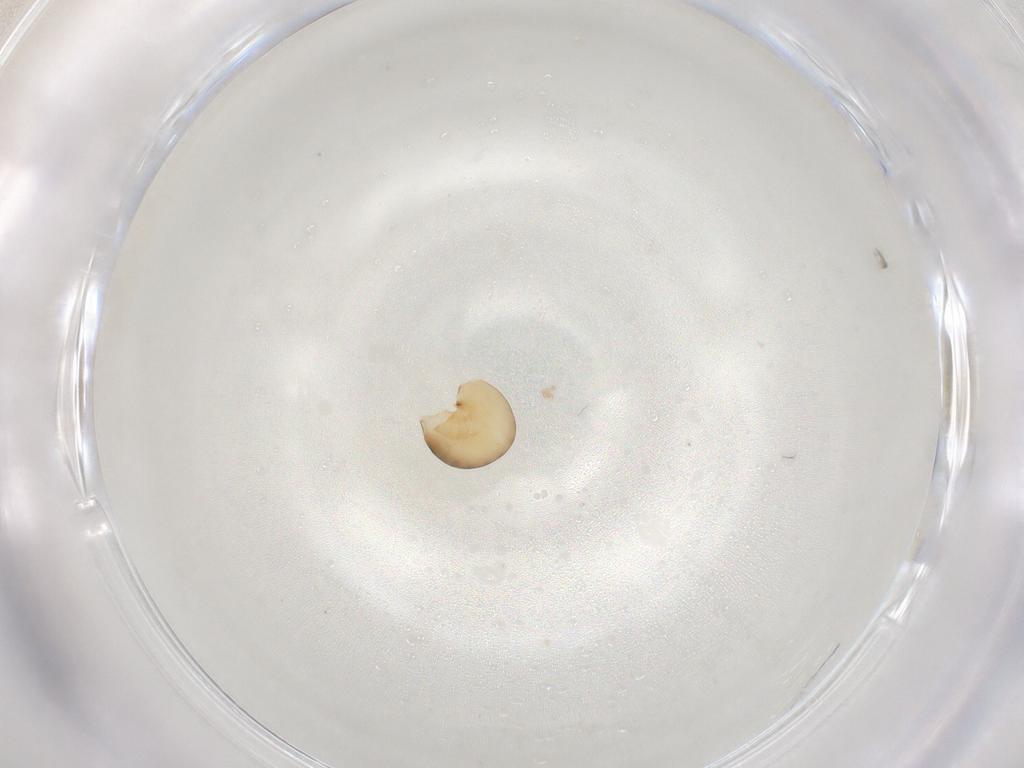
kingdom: Animalia
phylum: Arthropoda
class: Insecta
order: Hymenoptera
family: Dryinidae
